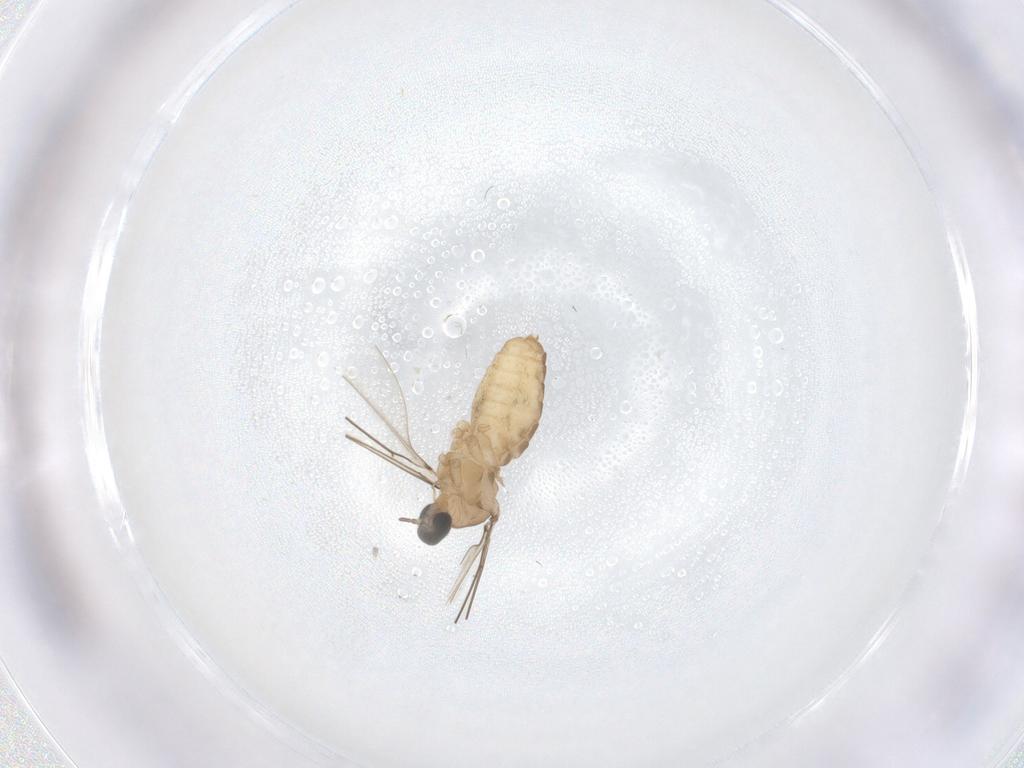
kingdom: Animalia
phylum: Arthropoda
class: Insecta
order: Diptera
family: Cecidomyiidae
